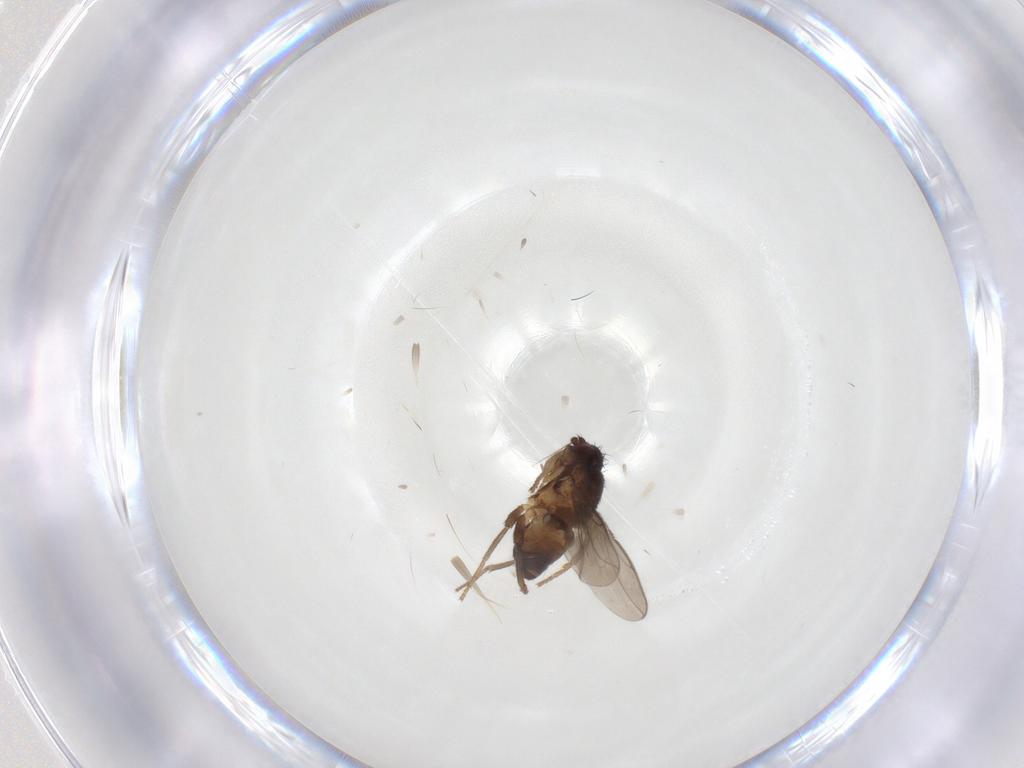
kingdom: Animalia
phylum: Arthropoda
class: Insecta
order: Diptera
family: Sphaeroceridae
